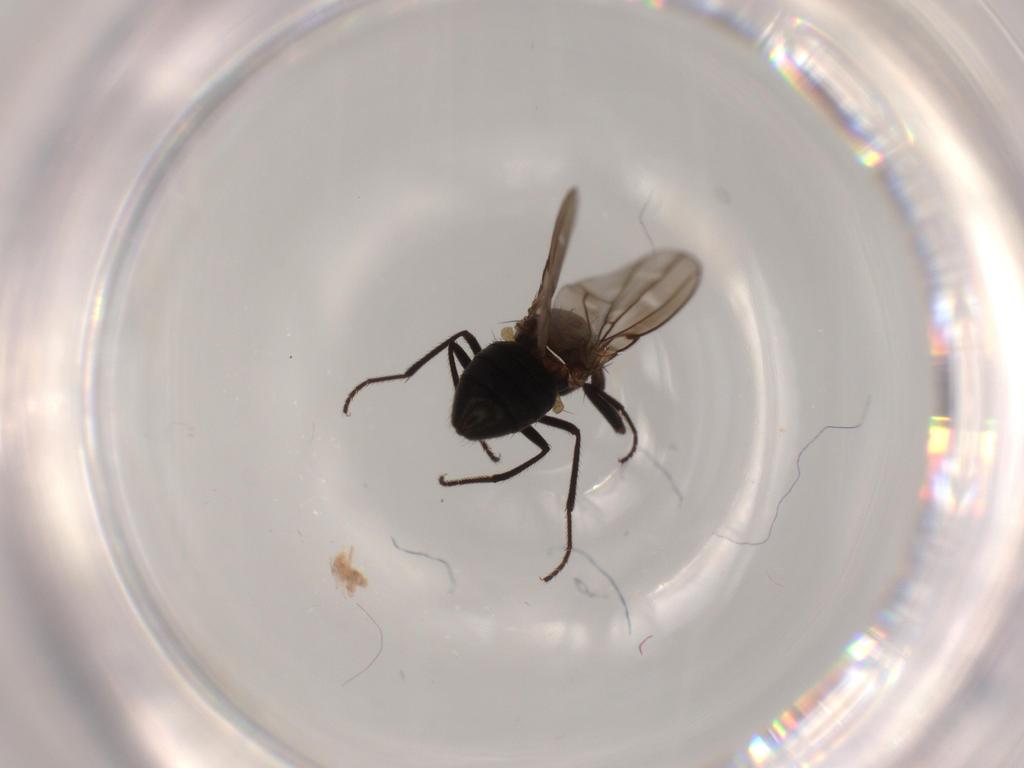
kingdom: Animalia
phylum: Arthropoda
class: Insecta
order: Diptera
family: Ephydridae
